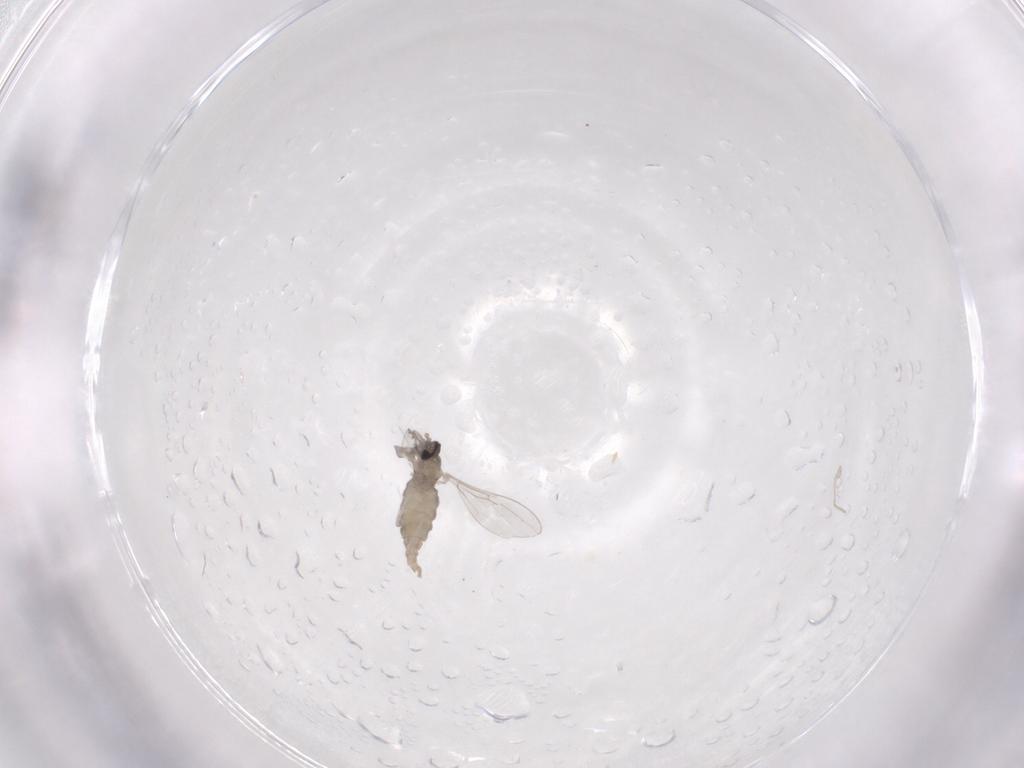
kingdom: Animalia
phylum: Arthropoda
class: Insecta
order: Diptera
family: Cecidomyiidae
